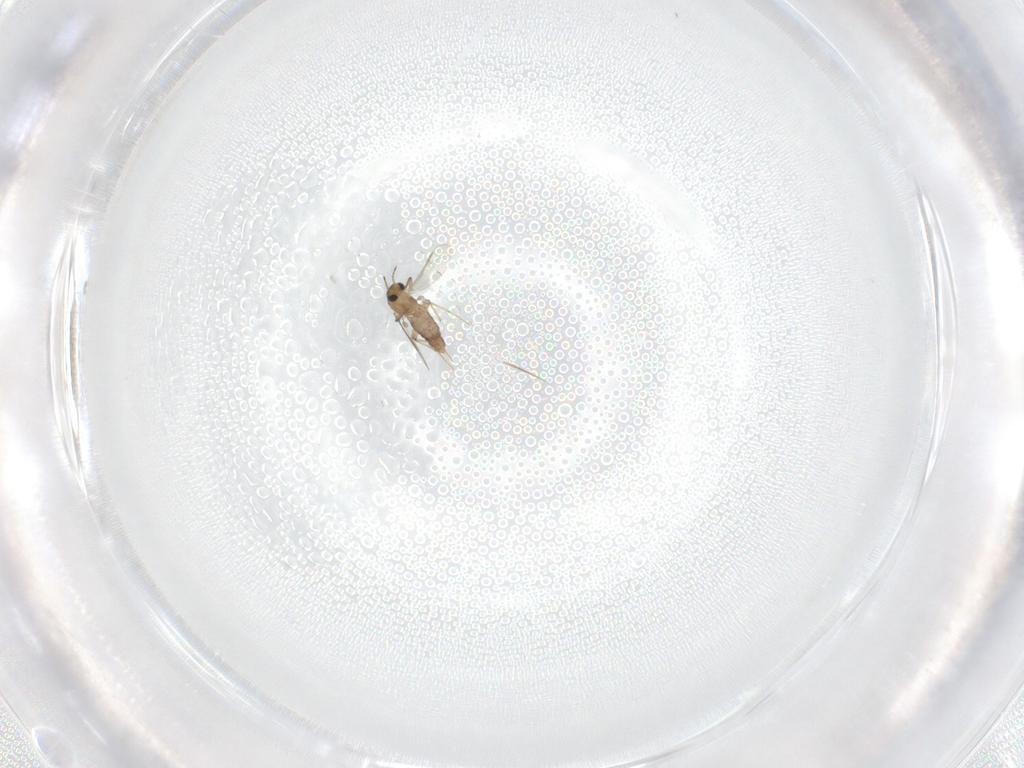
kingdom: Animalia
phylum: Arthropoda
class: Insecta
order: Diptera
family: Chironomidae
